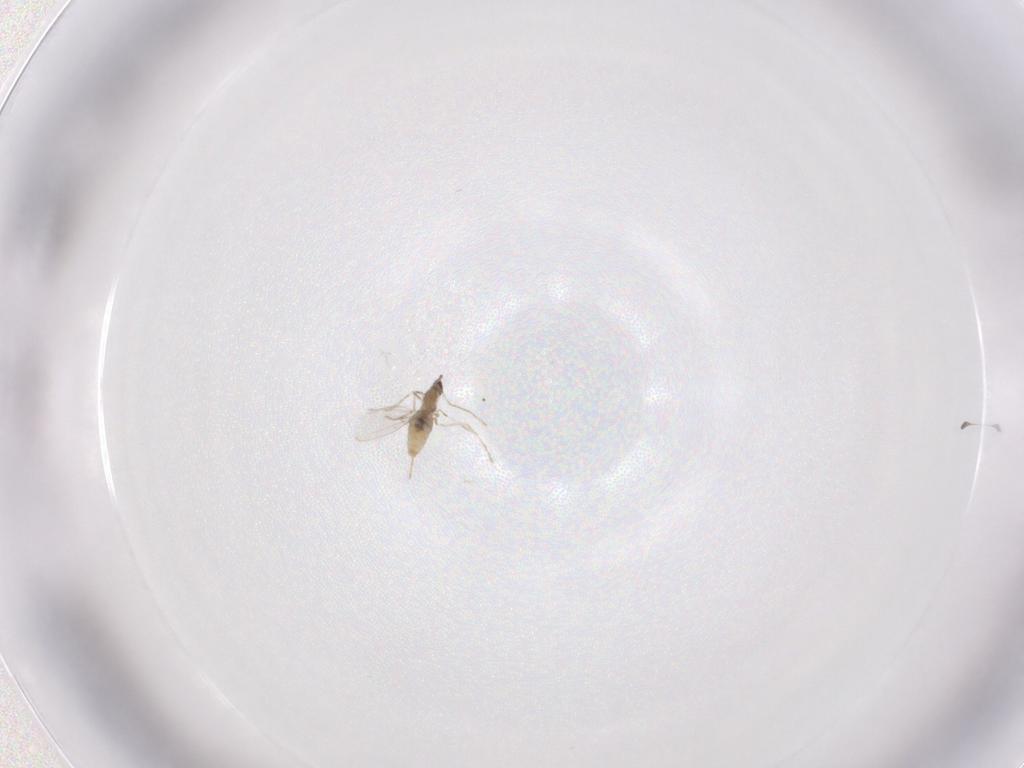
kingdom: Animalia
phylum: Arthropoda
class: Insecta
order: Diptera
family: Cecidomyiidae
